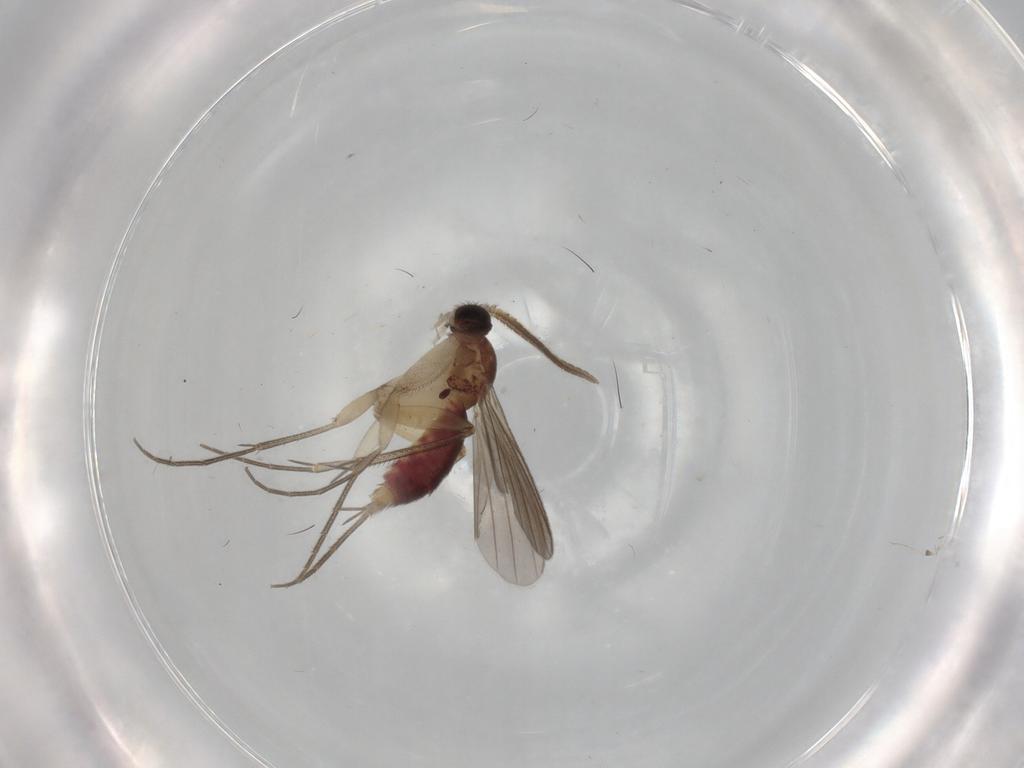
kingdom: Animalia
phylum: Arthropoda
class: Insecta
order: Diptera
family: Mycetophilidae
